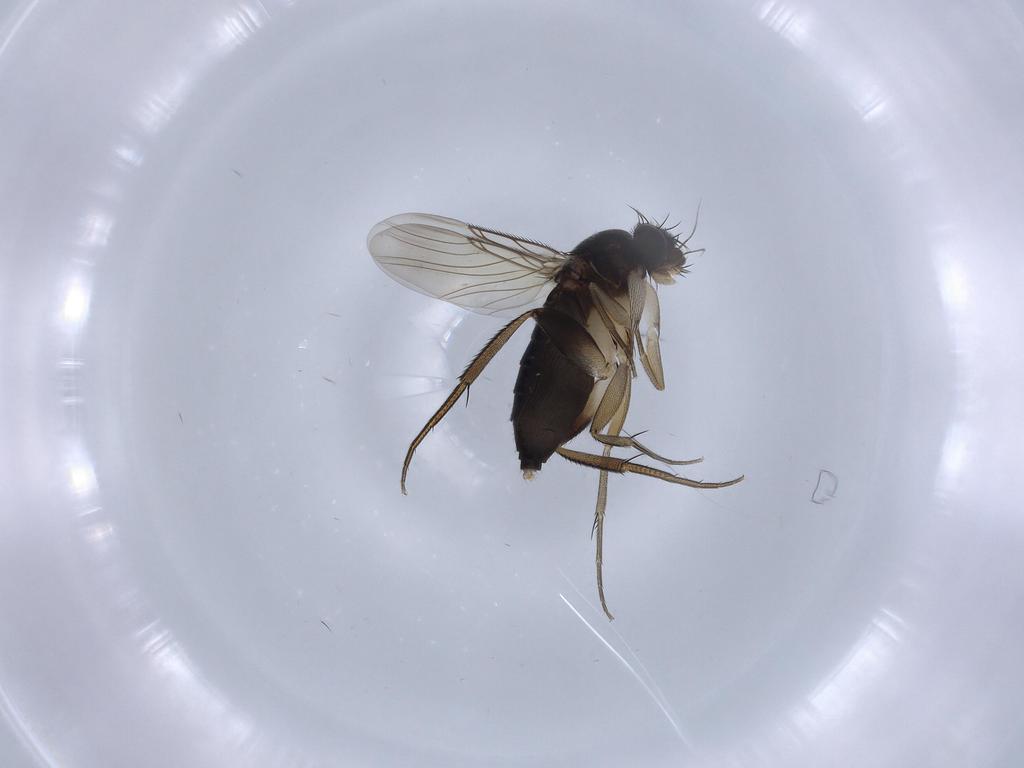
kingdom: Animalia
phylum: Arthropoda
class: Insecta
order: Diptera
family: Phoridae
